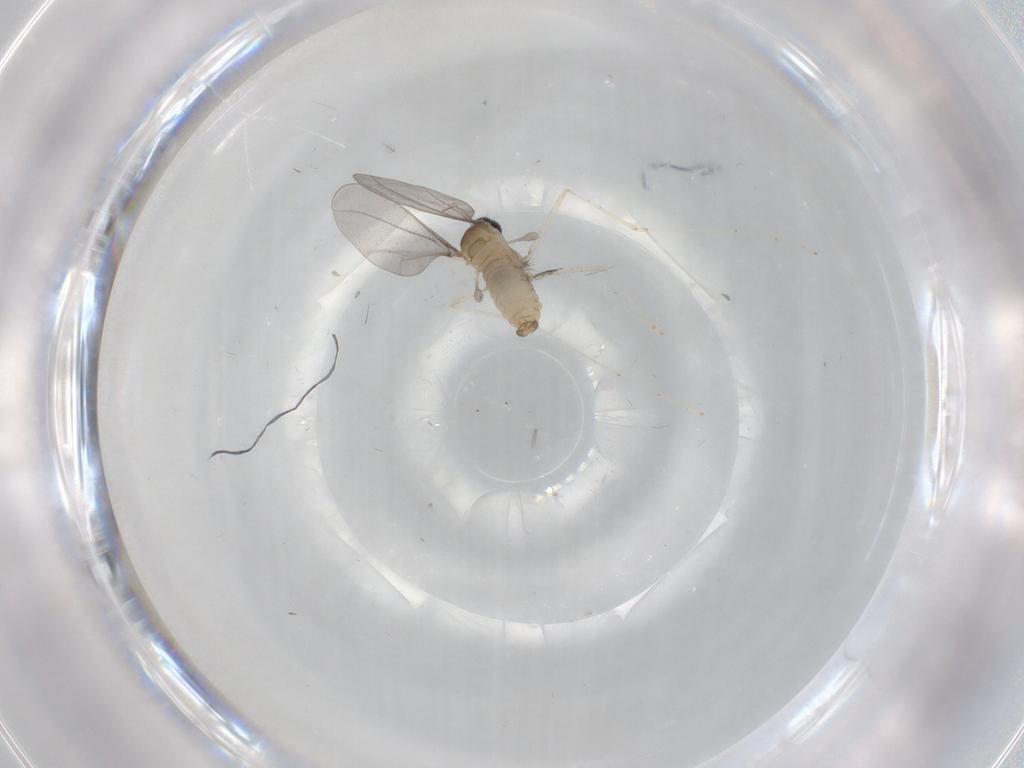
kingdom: Animalia
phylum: Arthropoda
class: Insecta
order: Diptera
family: Cecidomyiidae
